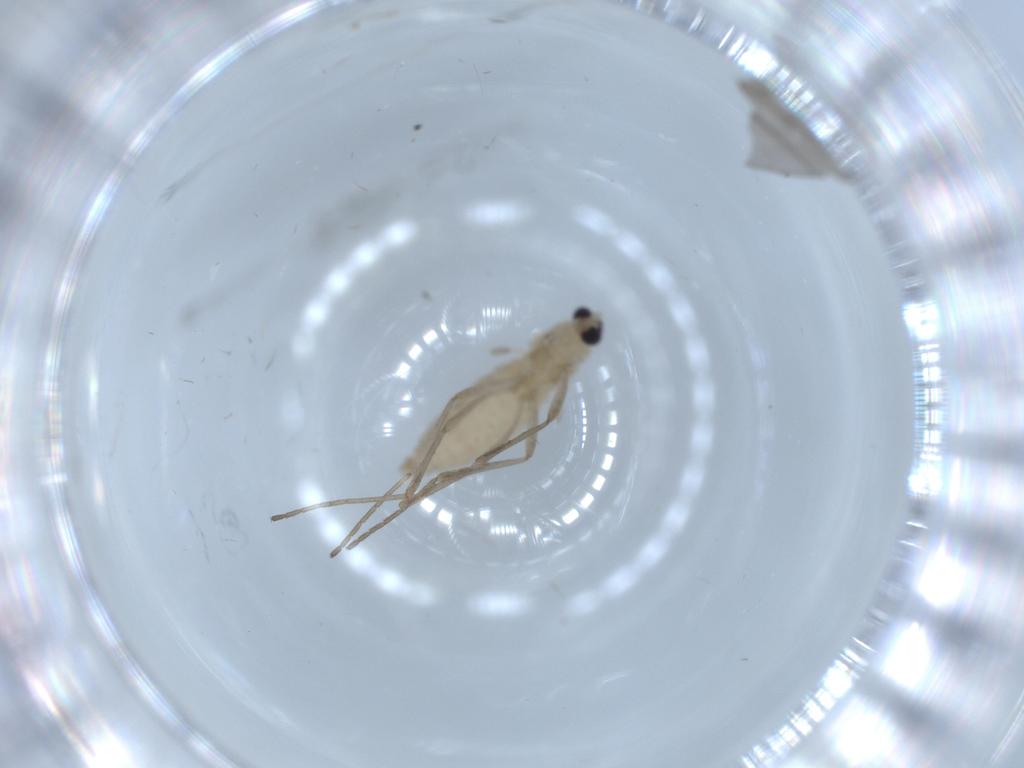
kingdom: Animalia
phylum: Arthropoda
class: Insecta
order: Diptera
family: Cecidomyiidae
